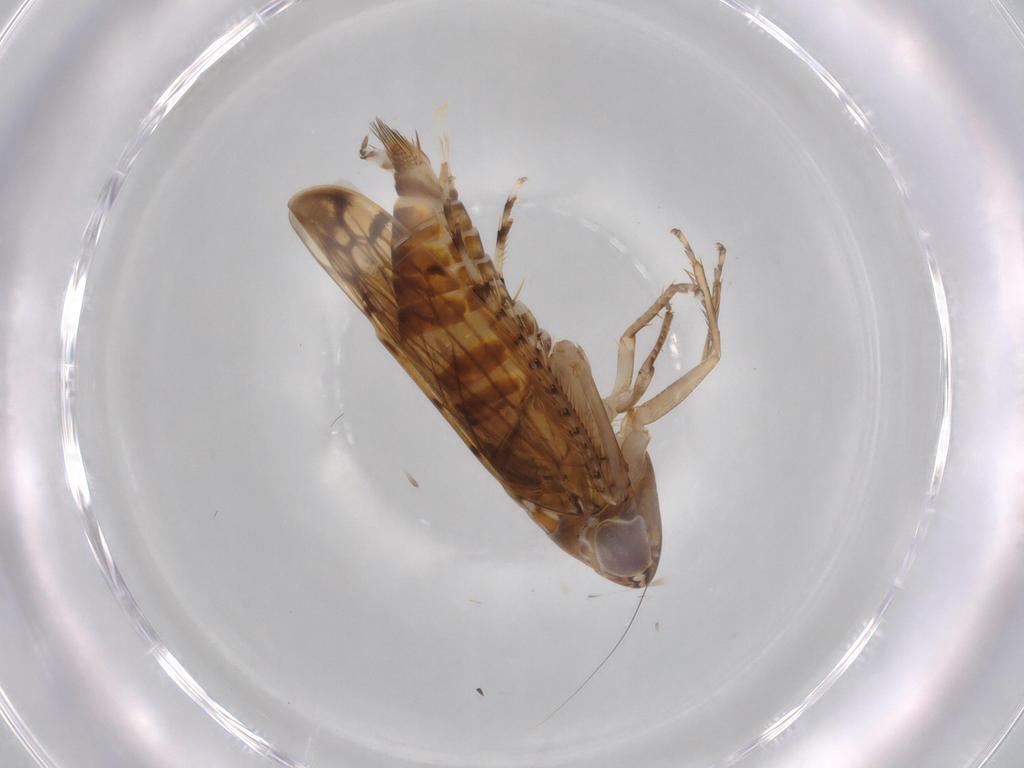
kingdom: Animalia
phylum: Arthropoda
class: Insecta
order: Hemiptera
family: Cicadellidae
